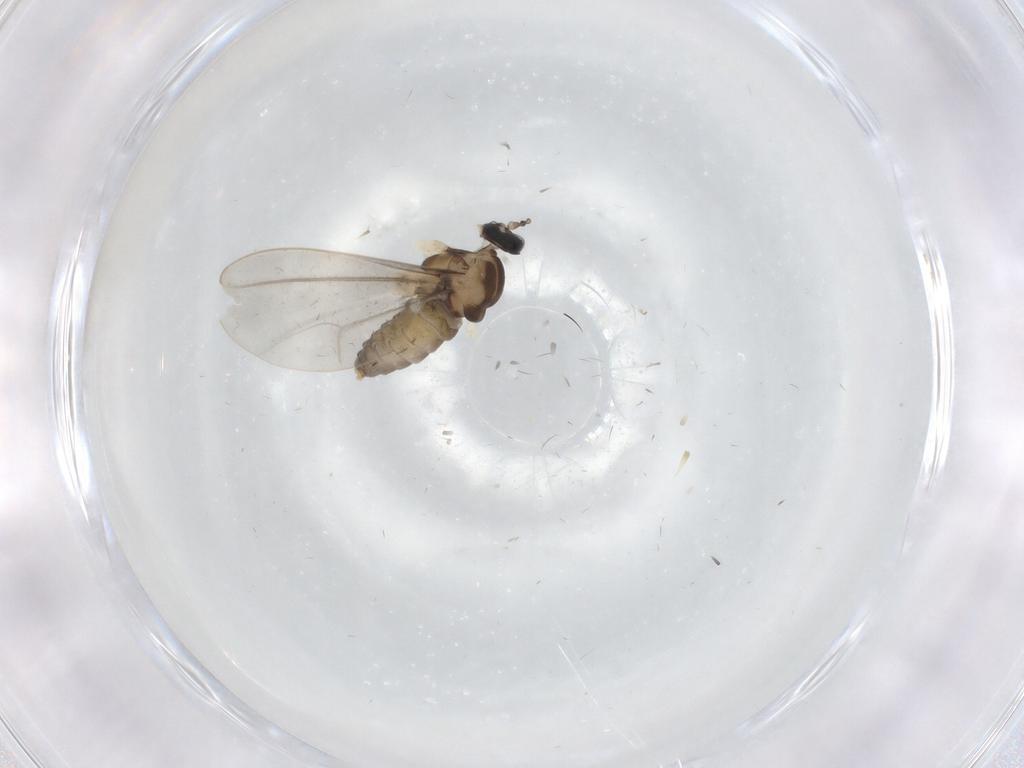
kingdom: Animalia
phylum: Arthropoda
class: Insecta
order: Diptera
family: Cecidomyiidae
